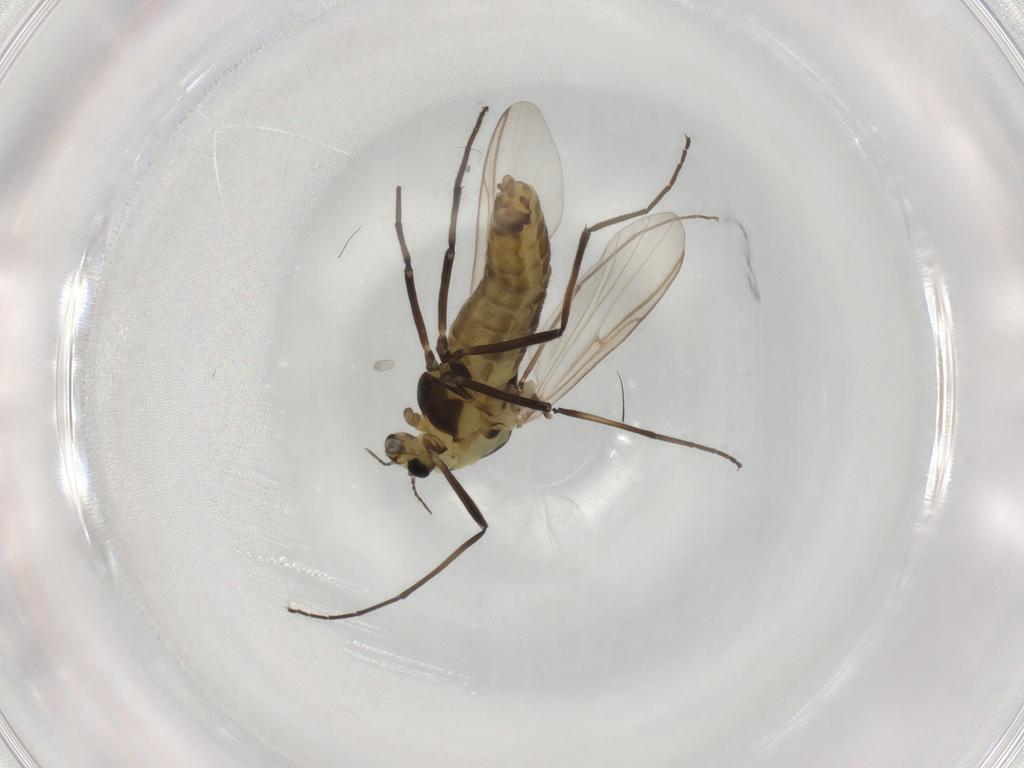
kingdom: Animalia
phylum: Arthropoda
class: Insecta
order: Diptera
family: Chironomidae
